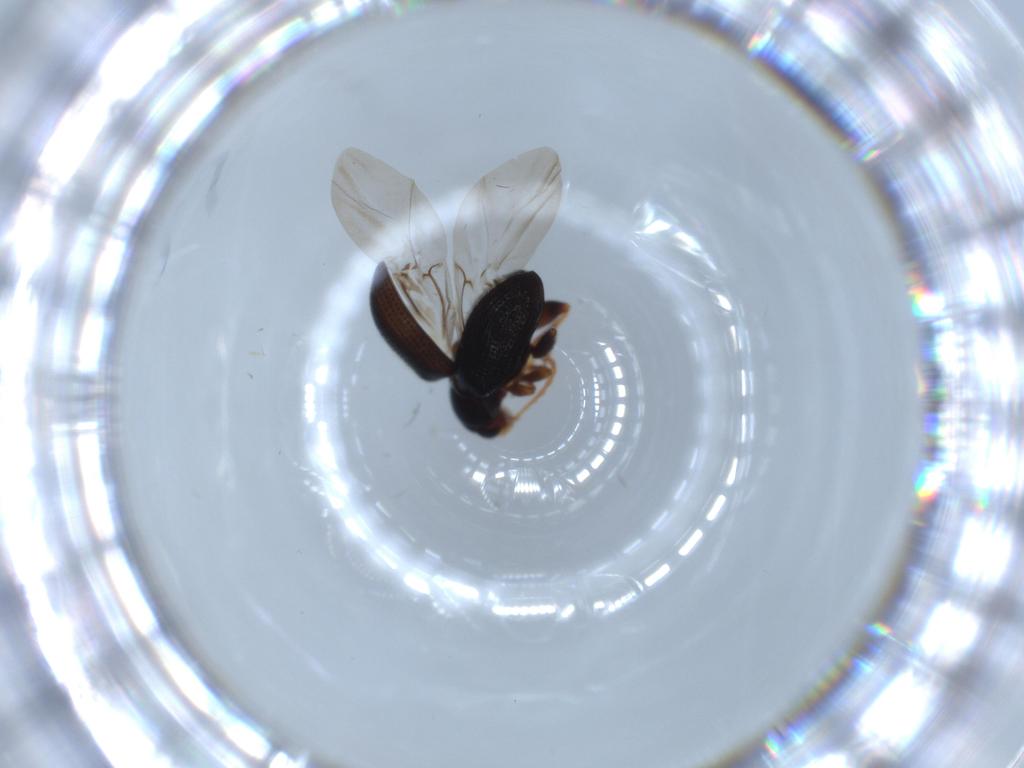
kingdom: Animalia
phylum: Arthropoda
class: Insecta
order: Coleoptera
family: Chrysomelidae
